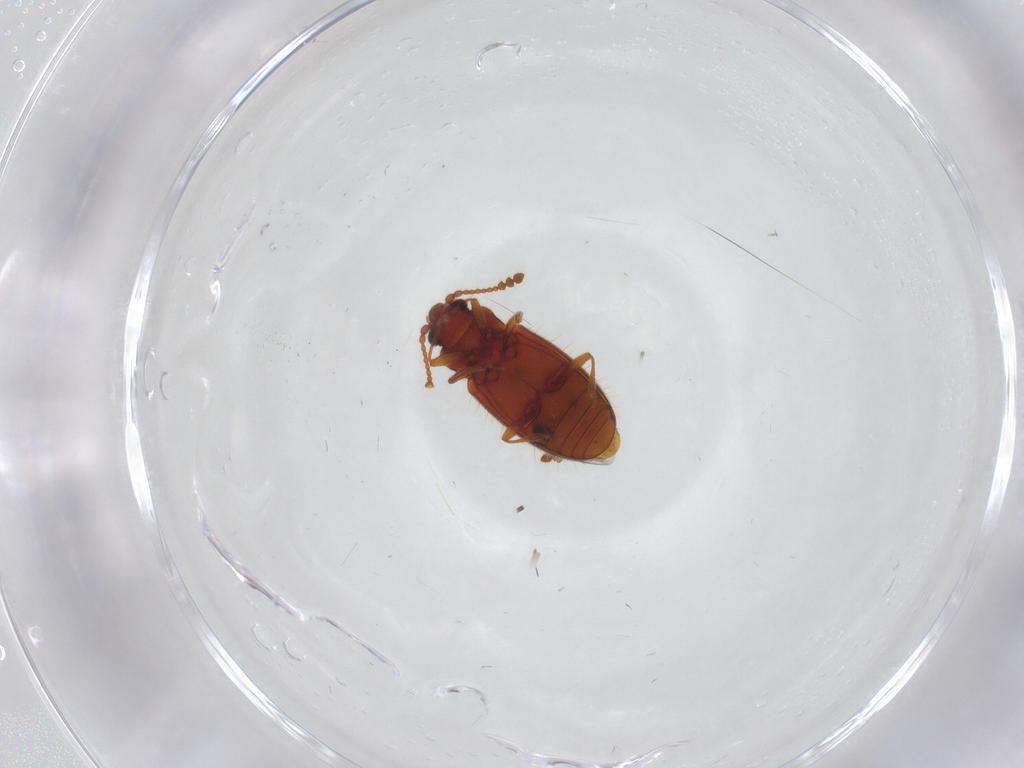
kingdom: Animalia
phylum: Arthropoda
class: Insecta
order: Coleoptera
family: Cryptophagidae
